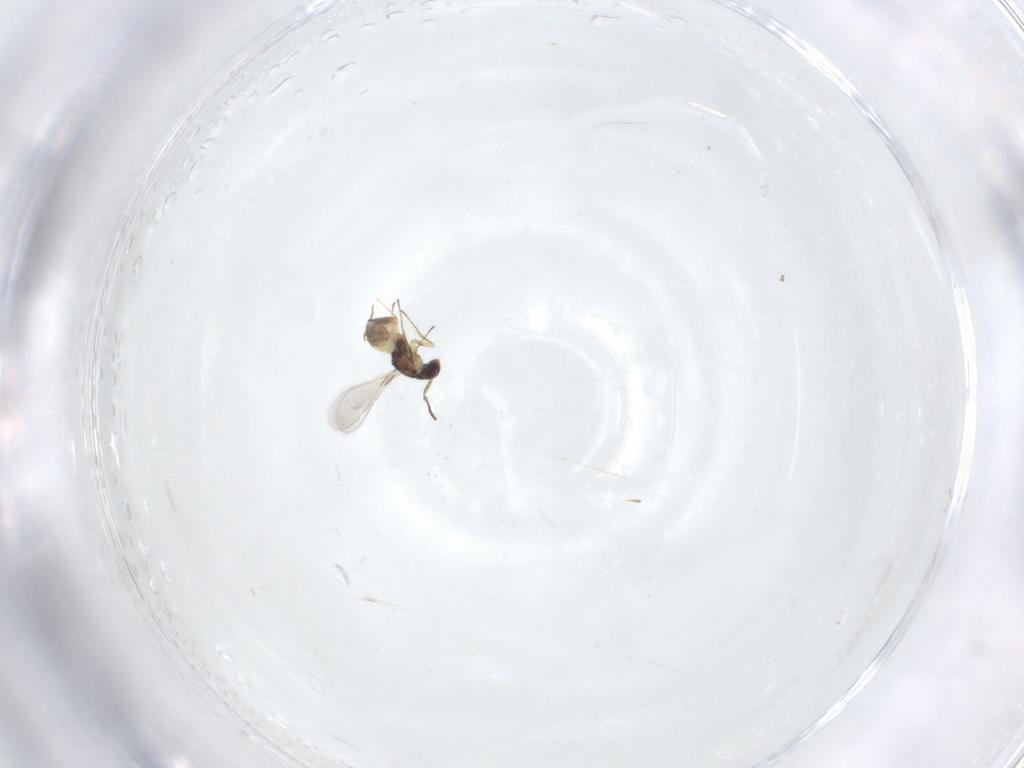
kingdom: Animalia
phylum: Arthropoda
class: Insecta
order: Hymenoptera
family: Mymaridae
